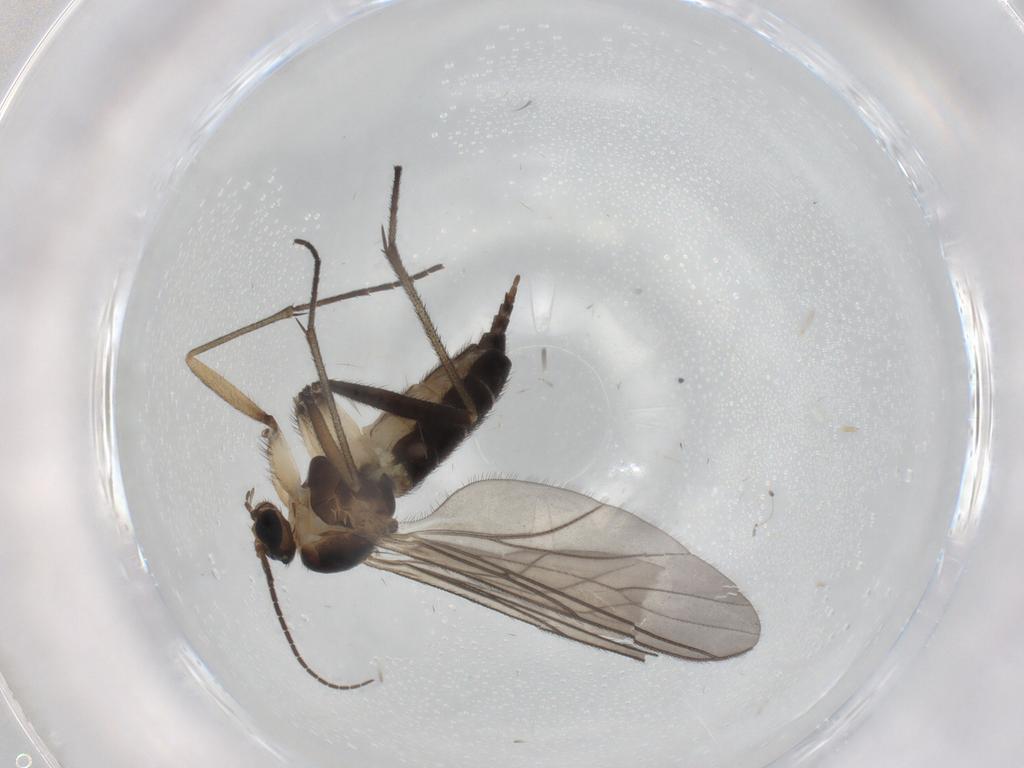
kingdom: Animalia
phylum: Arthropoda
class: Insecta
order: Diptera
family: Sciaridae
